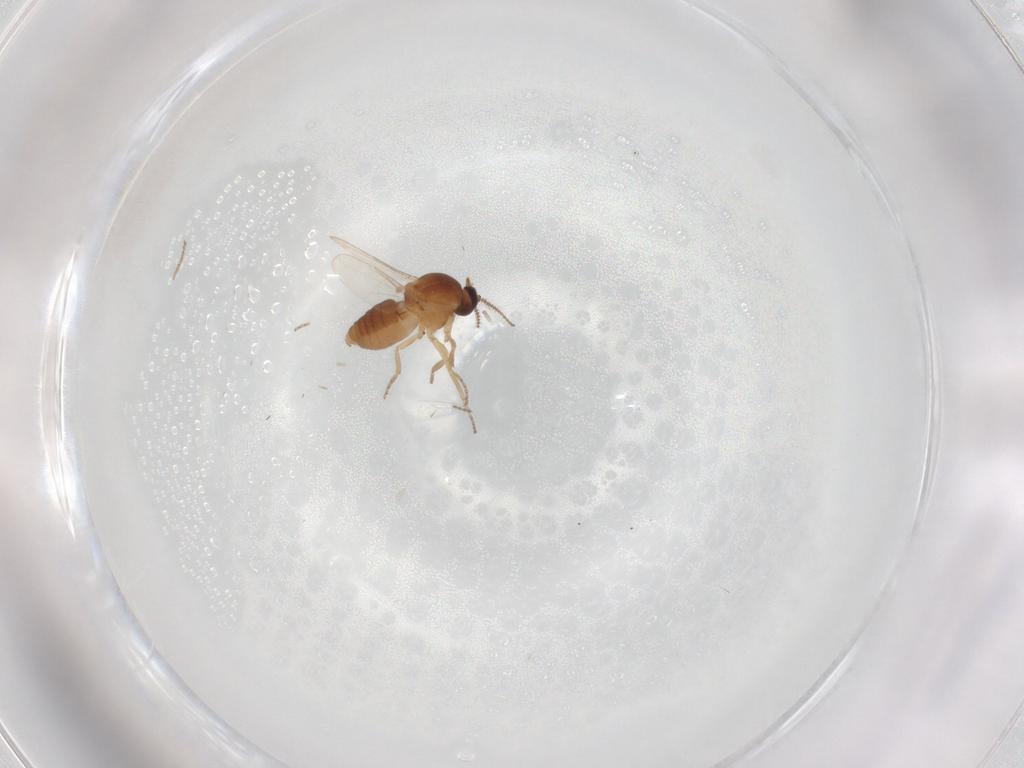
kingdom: Animalia
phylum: Arthropoda
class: Insecta
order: Diptera
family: Ceratopogonidae
